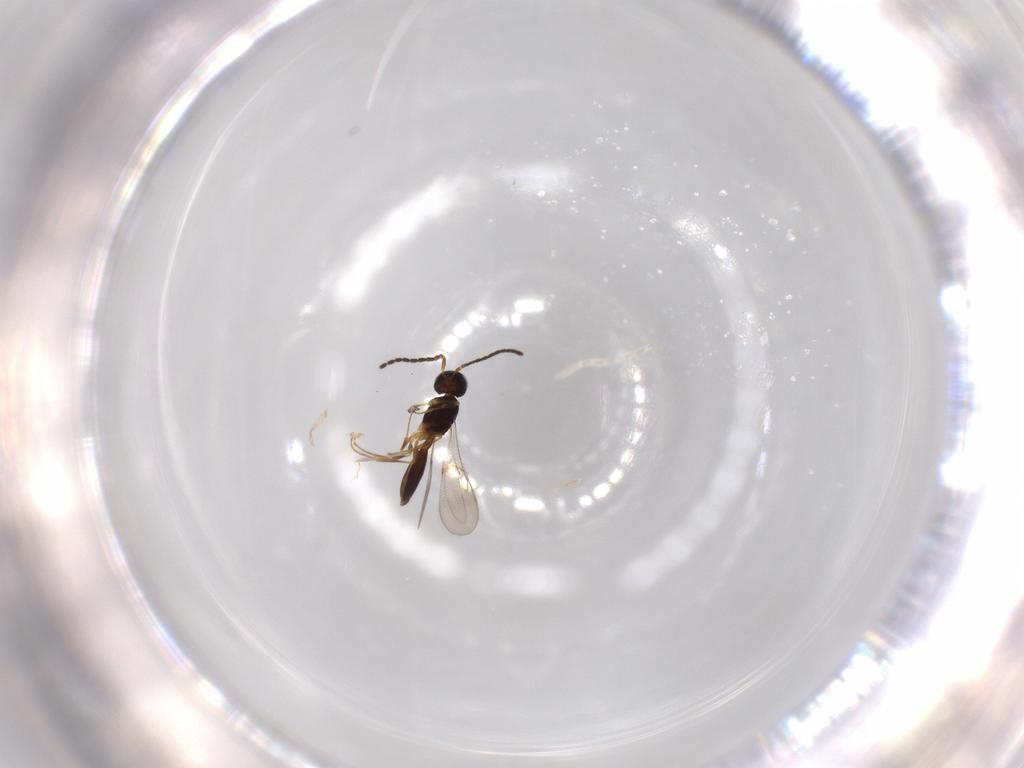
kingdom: Animalia
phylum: Arthropoda
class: Insecta
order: Hymenoptera
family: Scelionidae
